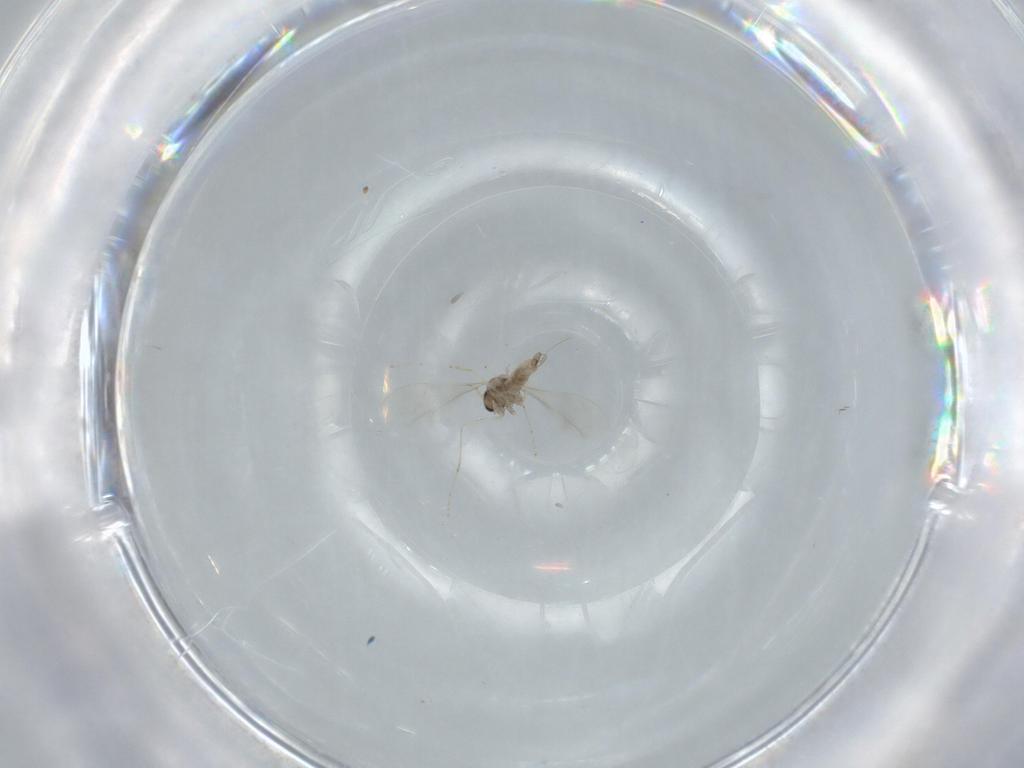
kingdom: Animalia
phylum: Arthropoda
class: Insecta
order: Diptera
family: Cecidomyiidae
